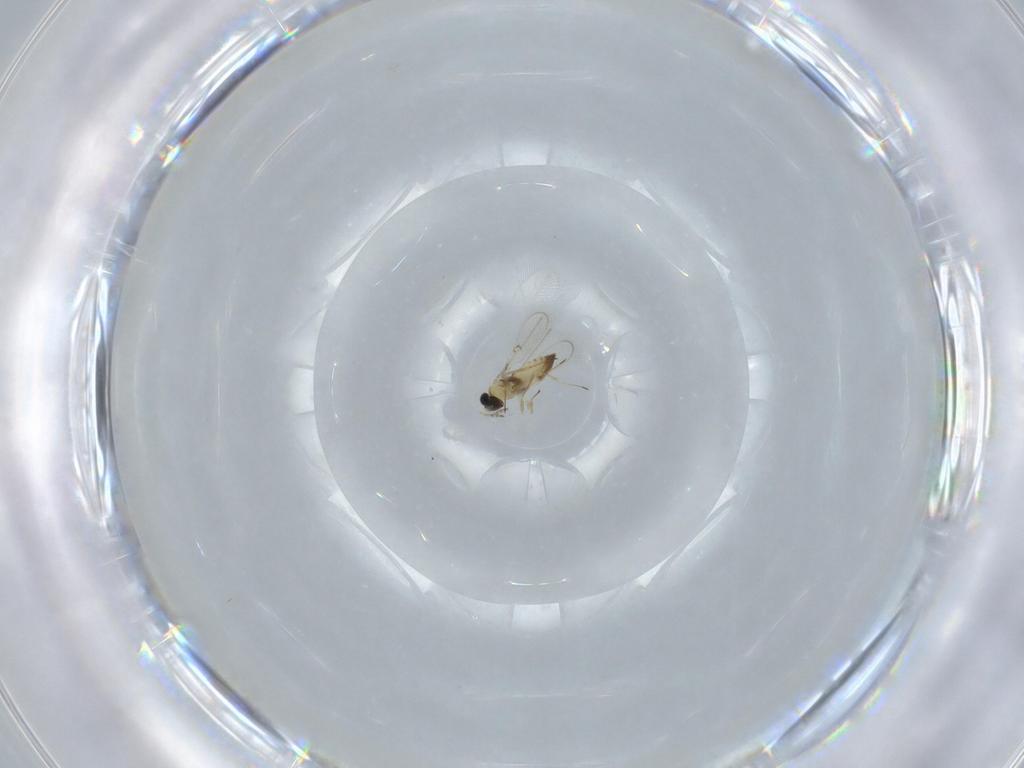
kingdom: Animalia
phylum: Arthropoda
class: Insecta
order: Hymenoptera
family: Trichogrammatidae
